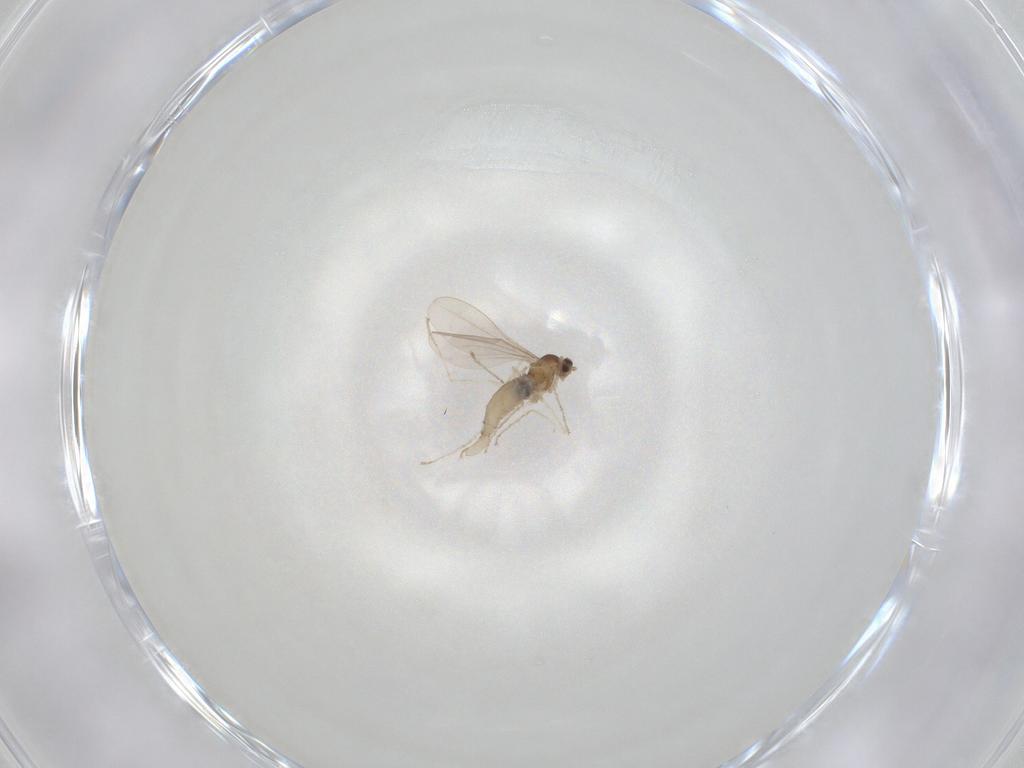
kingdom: Animalia
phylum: Arthropoda
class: Insecta
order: Diptera
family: Cecidomyiidae
